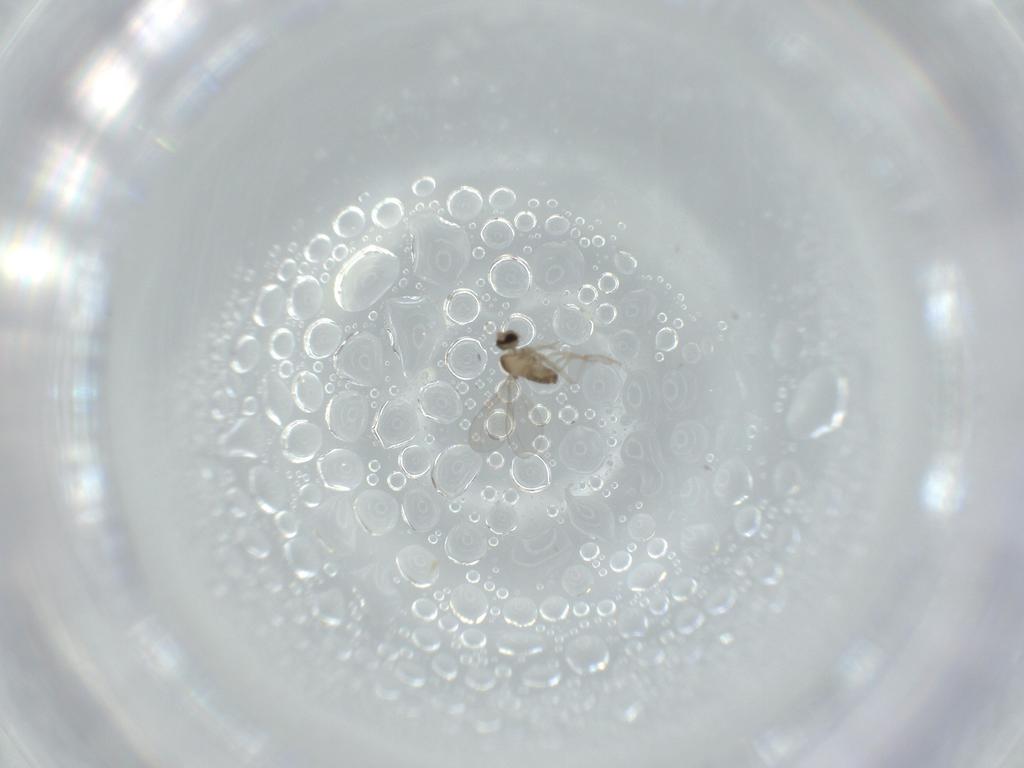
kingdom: Animalia
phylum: Arthropoda
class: Insecta
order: Diptera
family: Cecidomyiidae
